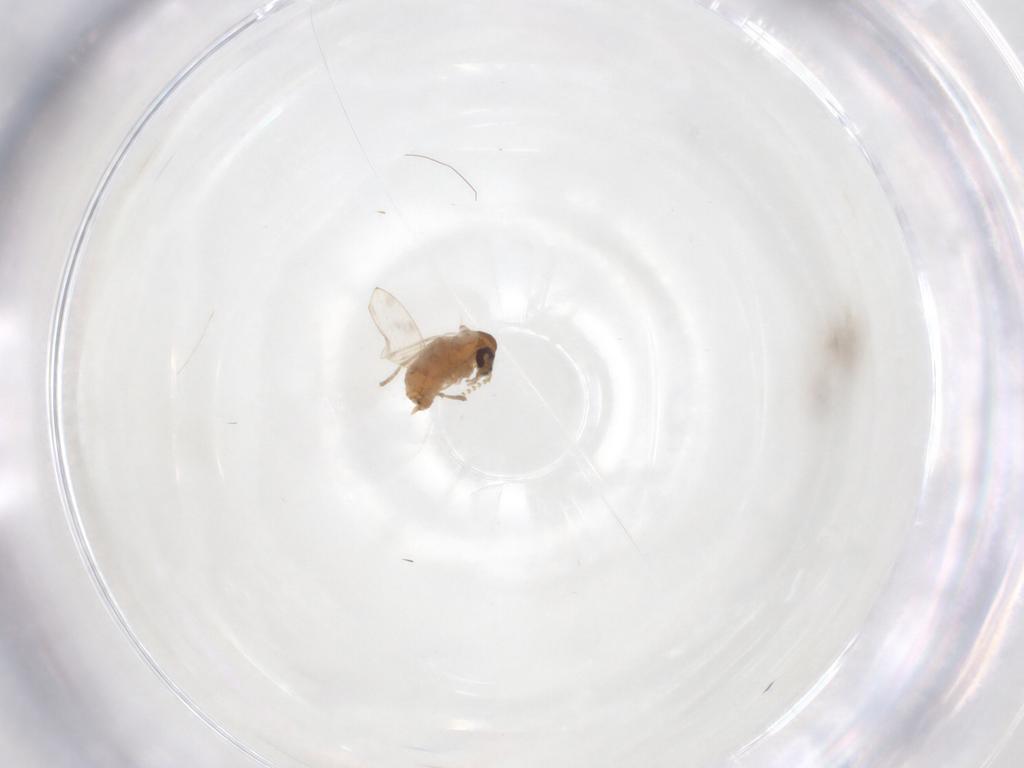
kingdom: Animalia
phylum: Arthropoda
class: Insecta
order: Diptera
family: Psychodidae
